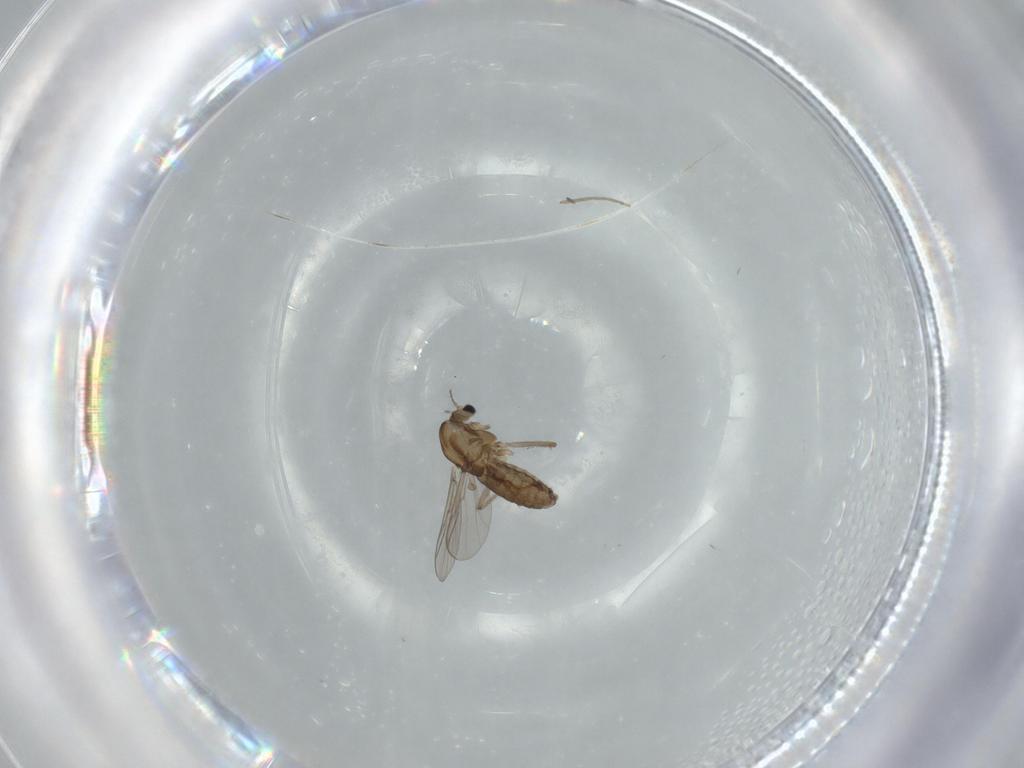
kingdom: Animalia
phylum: Arthropoda
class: Insecta
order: Diptera
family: Chironomidae
